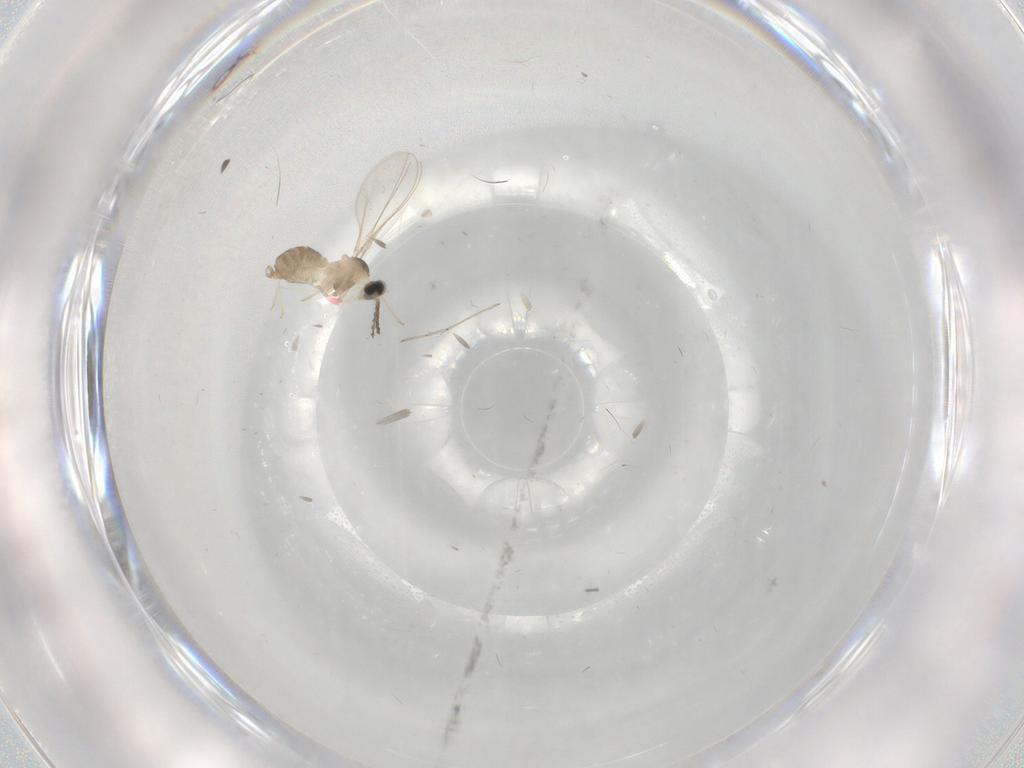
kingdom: Animalia
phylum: Arthropoda
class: Insecta
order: Diptera
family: Cecidomyiidae
